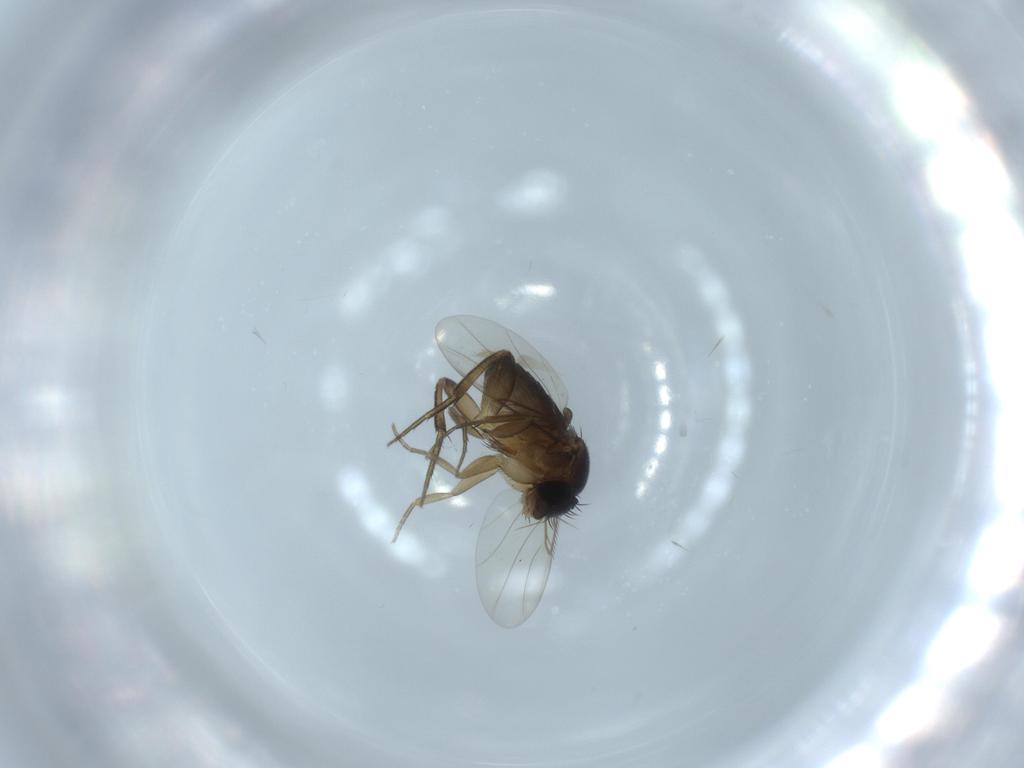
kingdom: Animalia
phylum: Arthropoda
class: Insecta
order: Diptera
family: Phoridae
